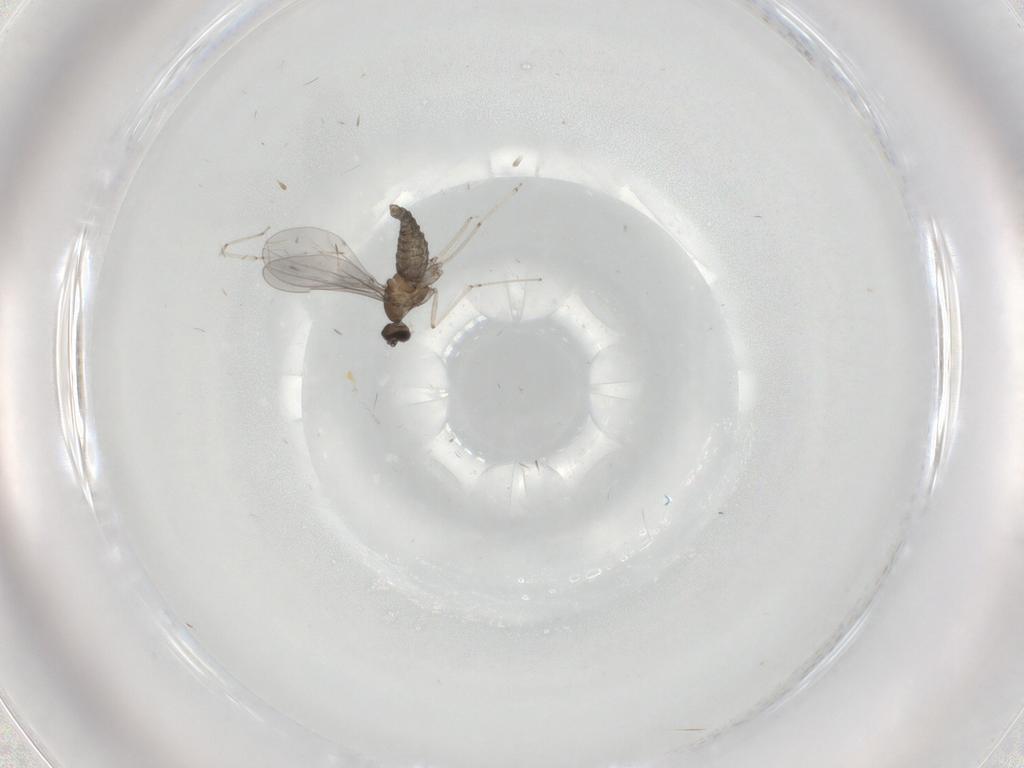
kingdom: Animalia
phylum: Arthropoda
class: Insecta
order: Diptera
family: Cecidomyiidae
